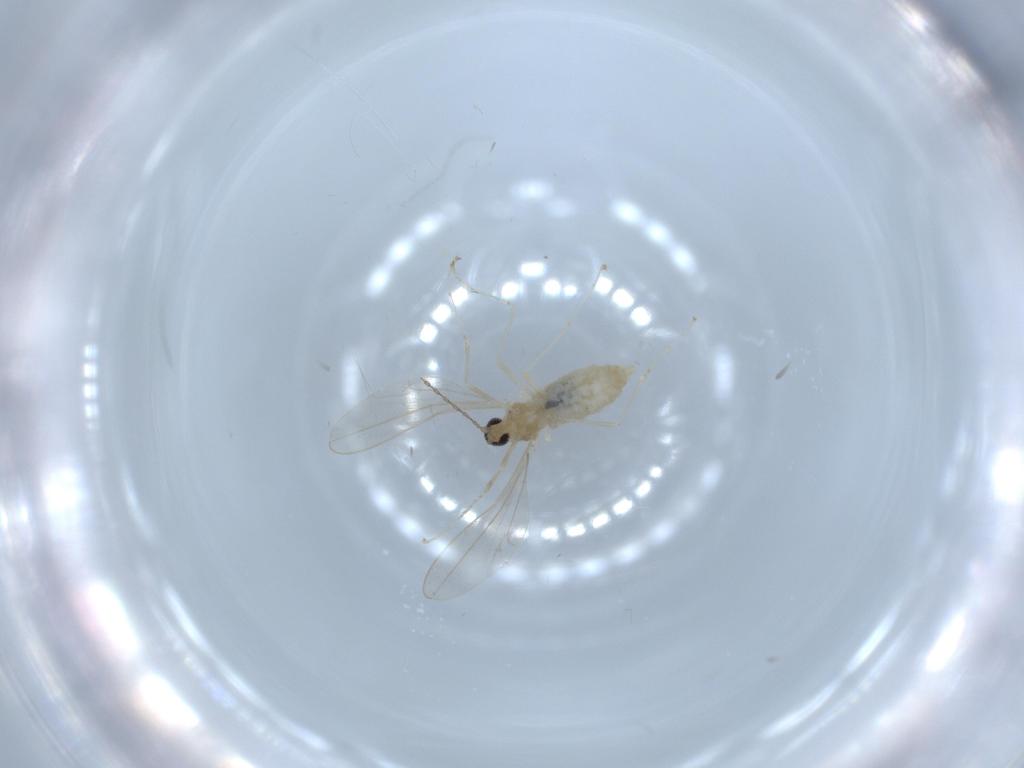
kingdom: Animalia
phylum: Arthropoda
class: Insecta
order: Diptera
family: Cecidomyiidae
